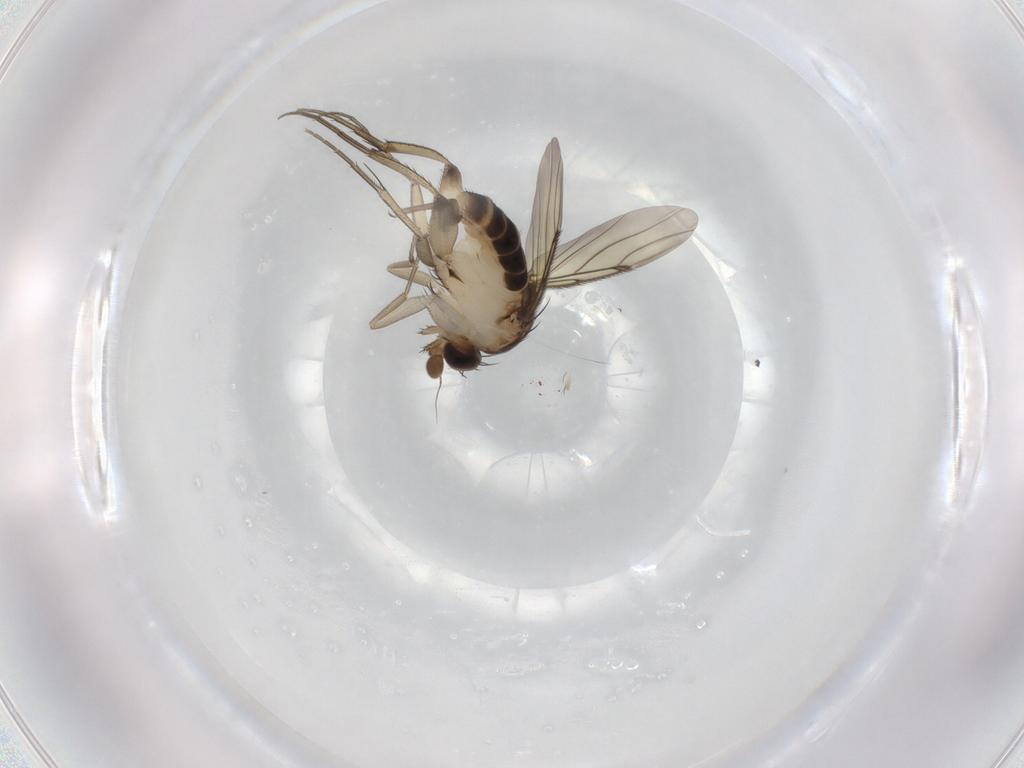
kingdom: Animalia
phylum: Arthropoda
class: Insecta
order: Diptera
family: Phoridae
